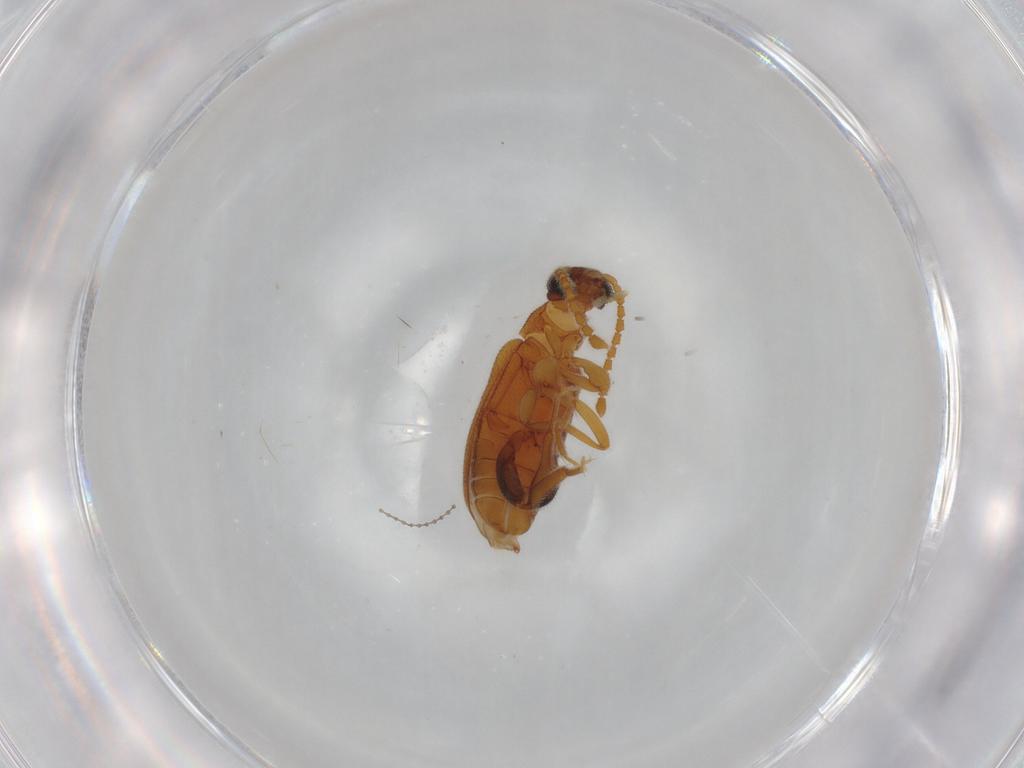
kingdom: Animalia
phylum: Arthropoda
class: Insecta
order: Coleoptera
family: Aderidae
